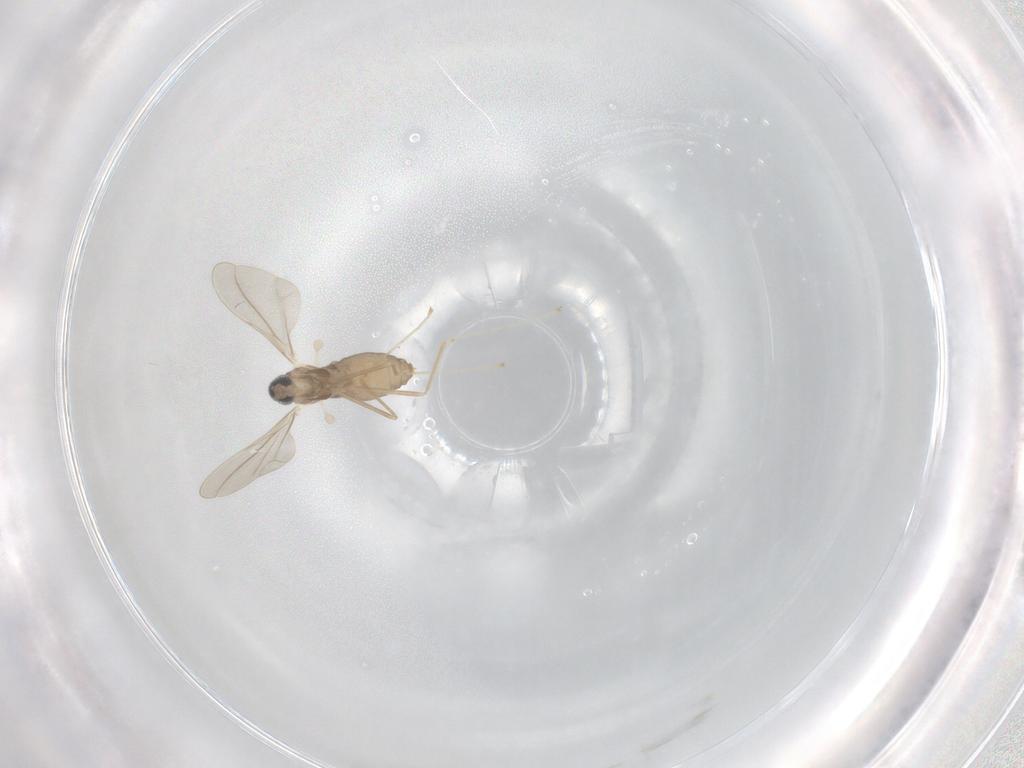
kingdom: Animalia
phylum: Arthropoda
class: Insecta
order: Diptera
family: Cecidomyiidae
